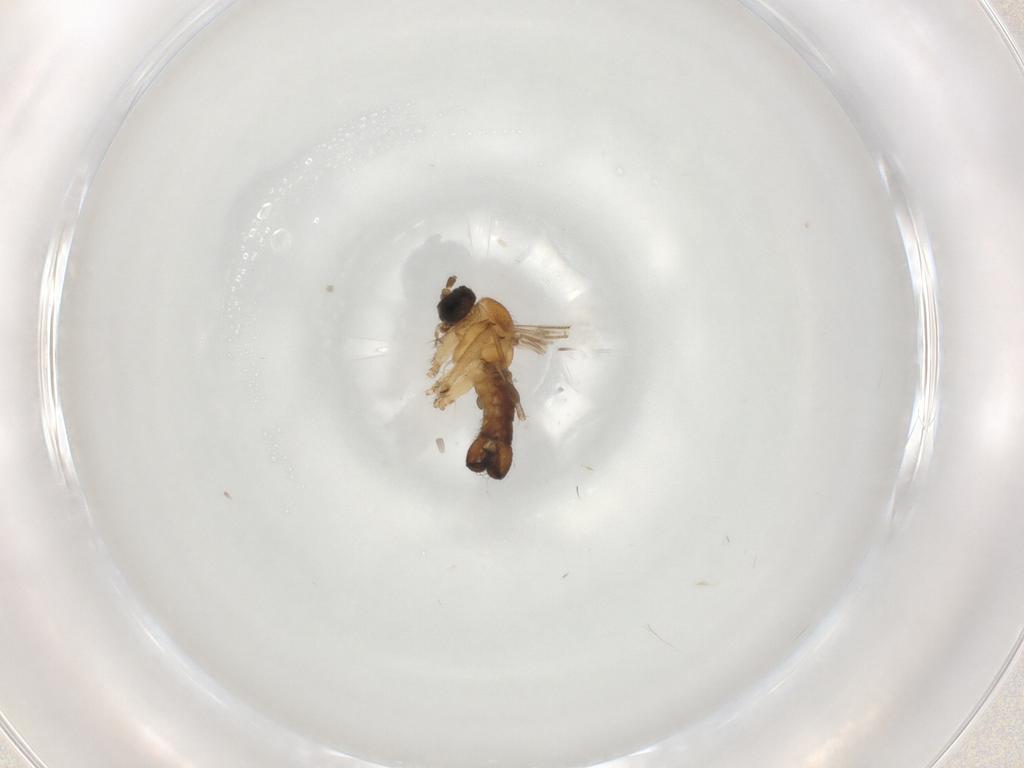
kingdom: Animalia
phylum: Arthropoda
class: Insecta
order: Diptera
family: Sciaridae
